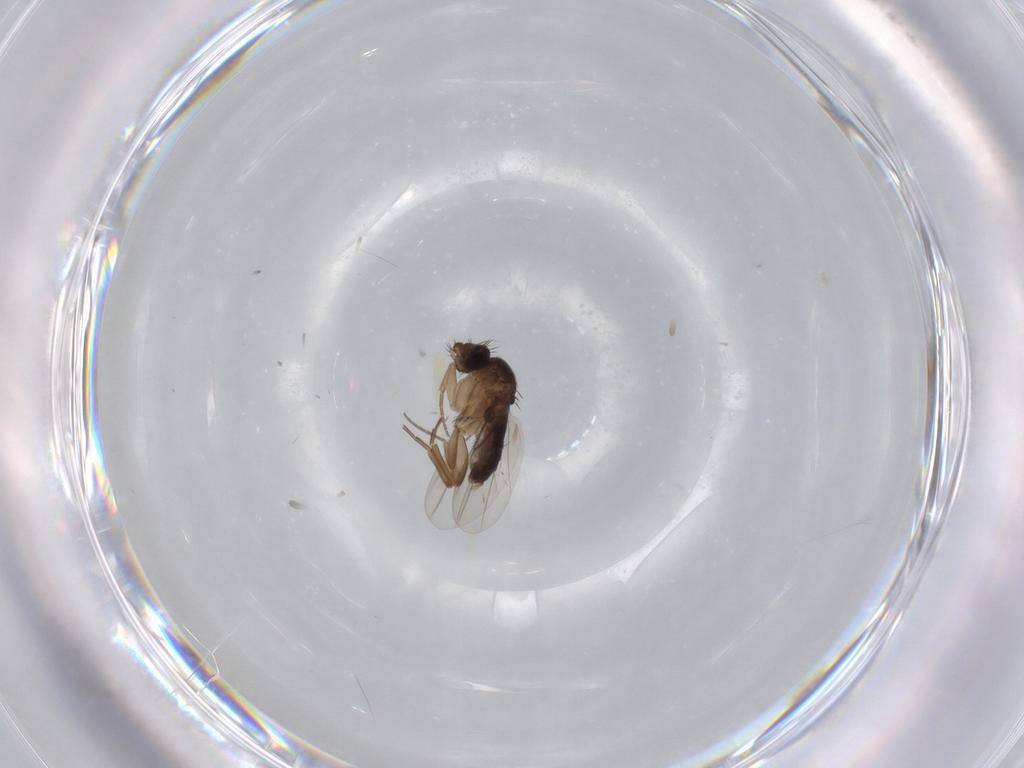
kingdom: Animalia
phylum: Arthropoda
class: Insecta
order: Diptera
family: Phoridae
